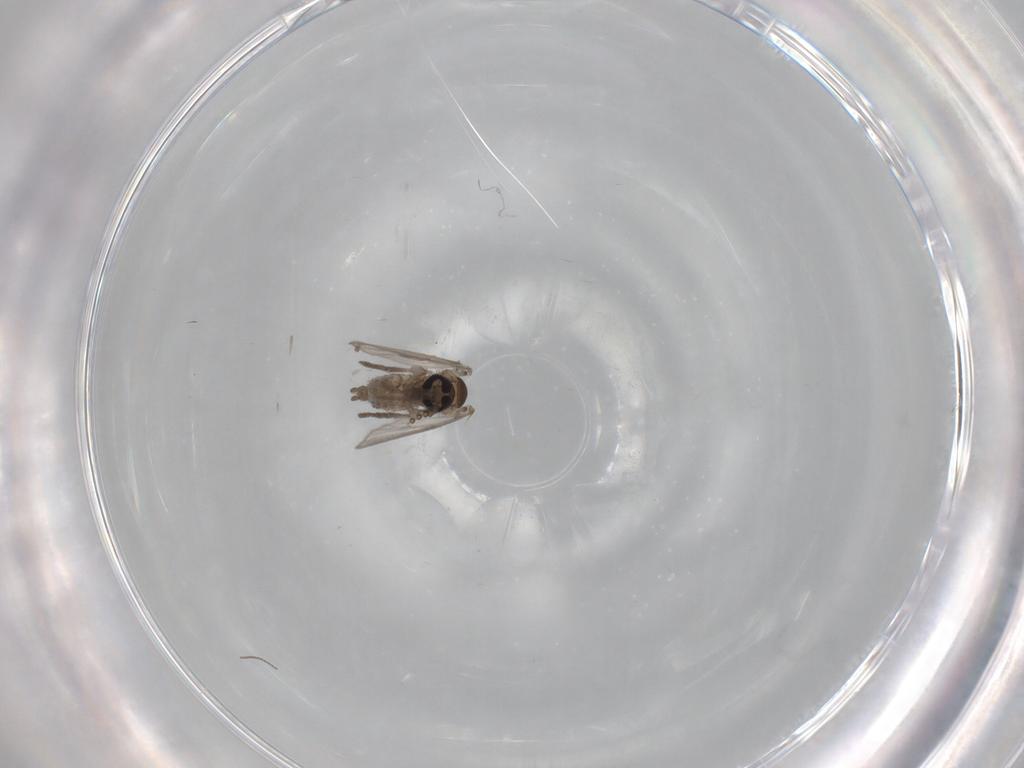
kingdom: Animalia
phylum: Arthropoda
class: Insecta
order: Diptera
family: Psychodidae
